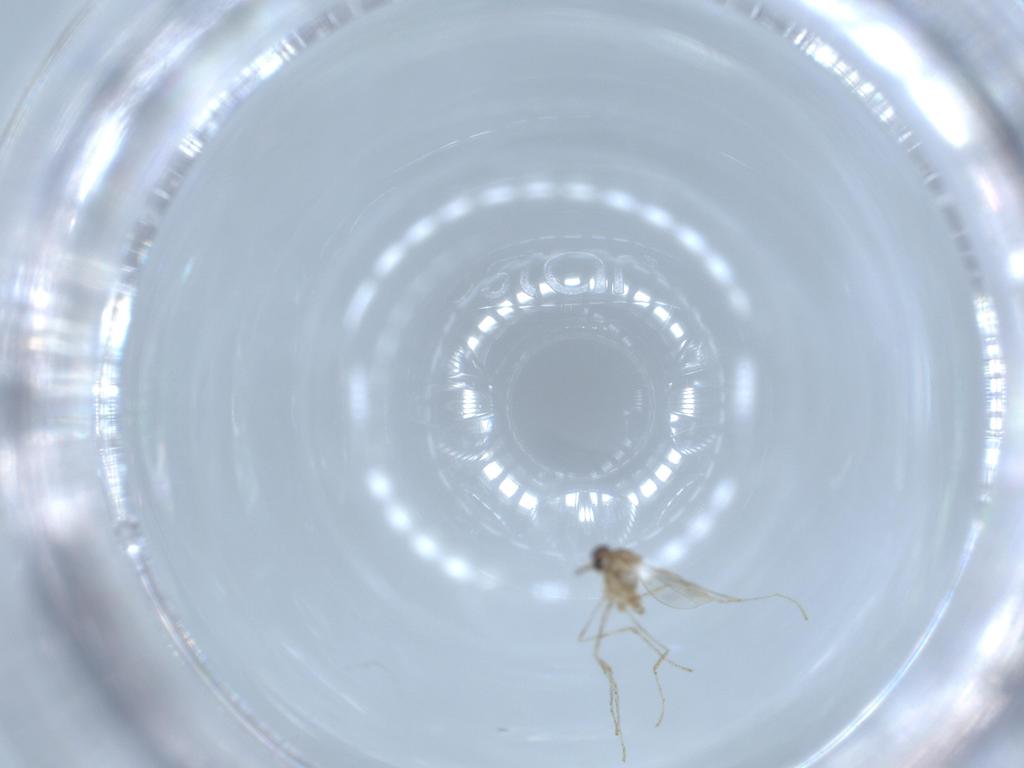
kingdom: Animalia
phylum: Arthropoda
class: Insecta
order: Diptera
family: Cecidomyiidae
